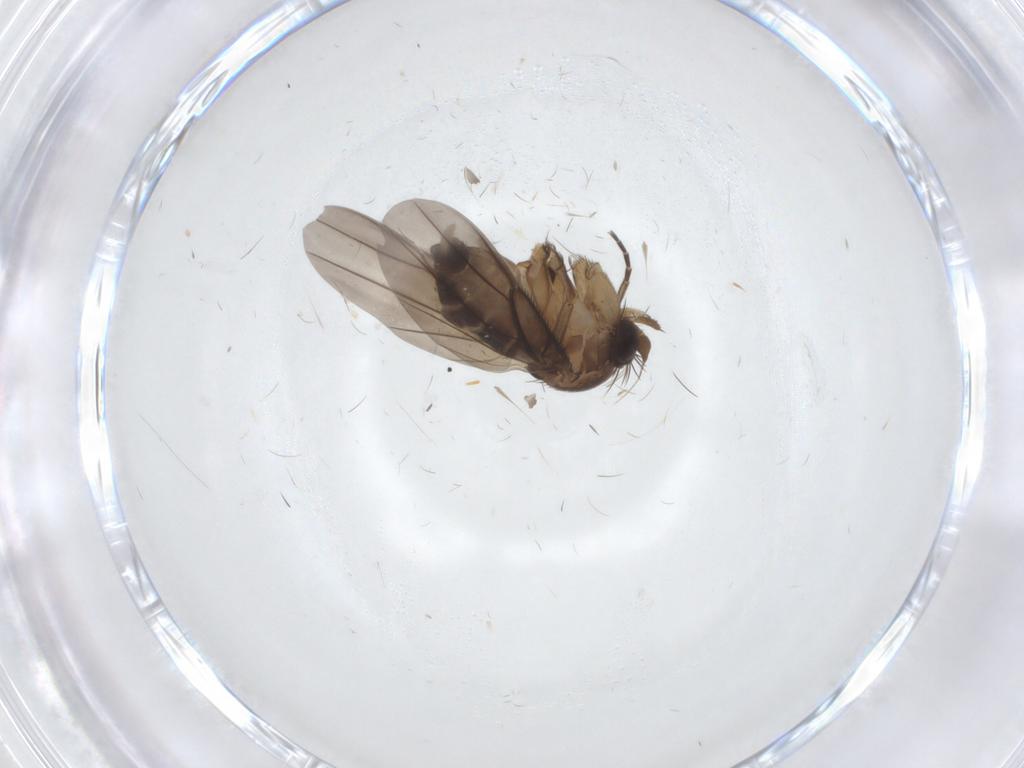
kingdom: Animalia
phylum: Arthropoda
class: Insecta
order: Diptera
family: Phoridae
